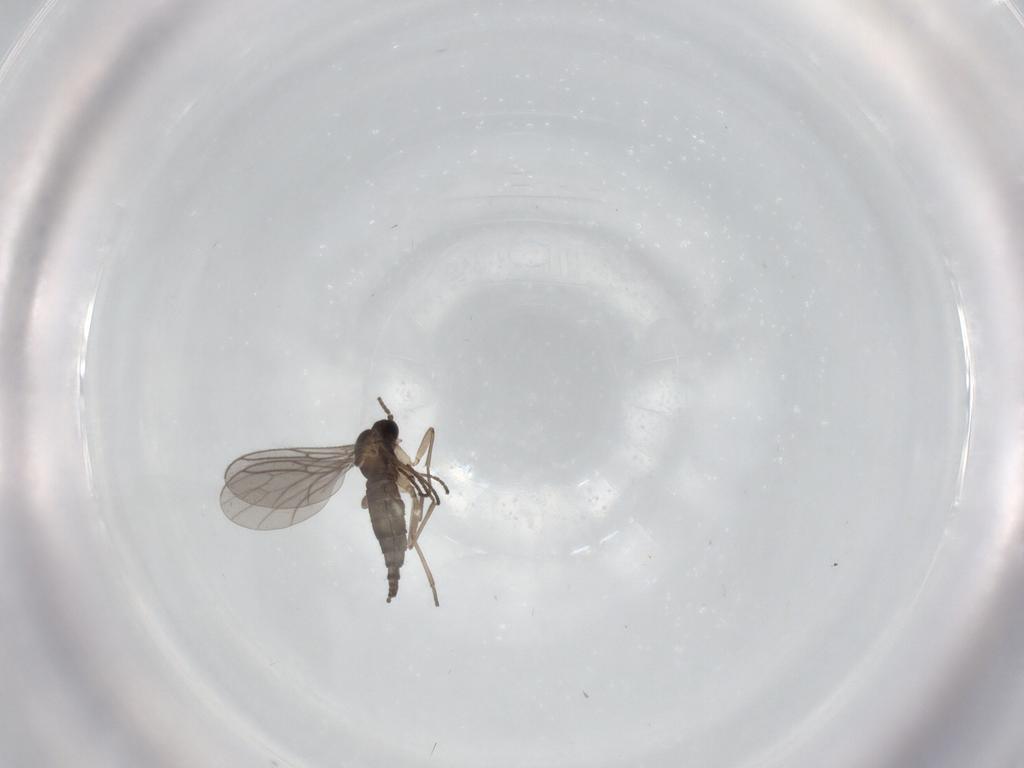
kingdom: Animalia
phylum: Arthropoda
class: Insecta
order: Diptera
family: Sciaridae
